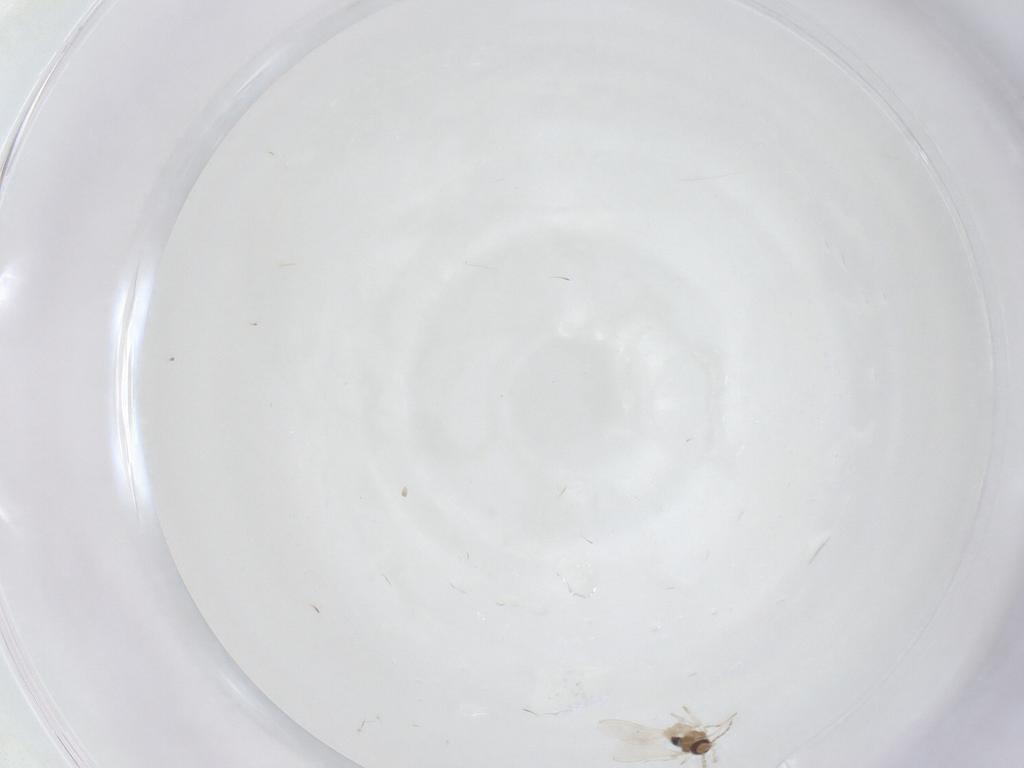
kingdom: Animalia
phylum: Arthropoda
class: Insecta
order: Diptera
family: Cecidomyiidae
